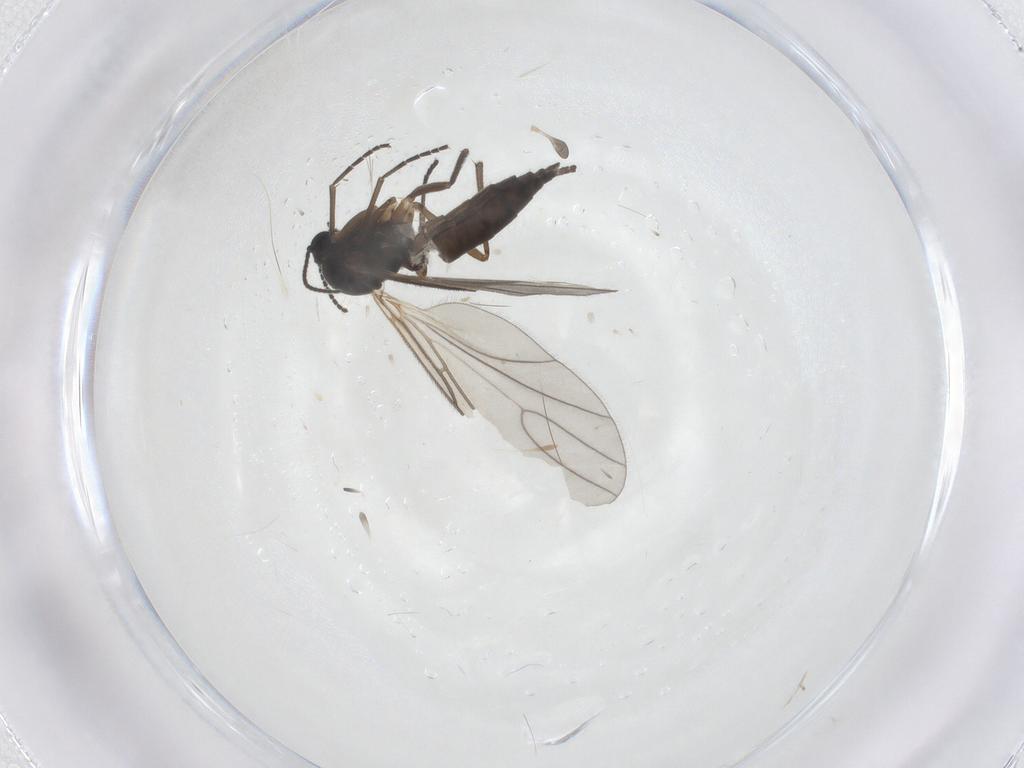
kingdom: Animalia
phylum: Arthropoda
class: Insecta
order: Diptera
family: Sciaridae
